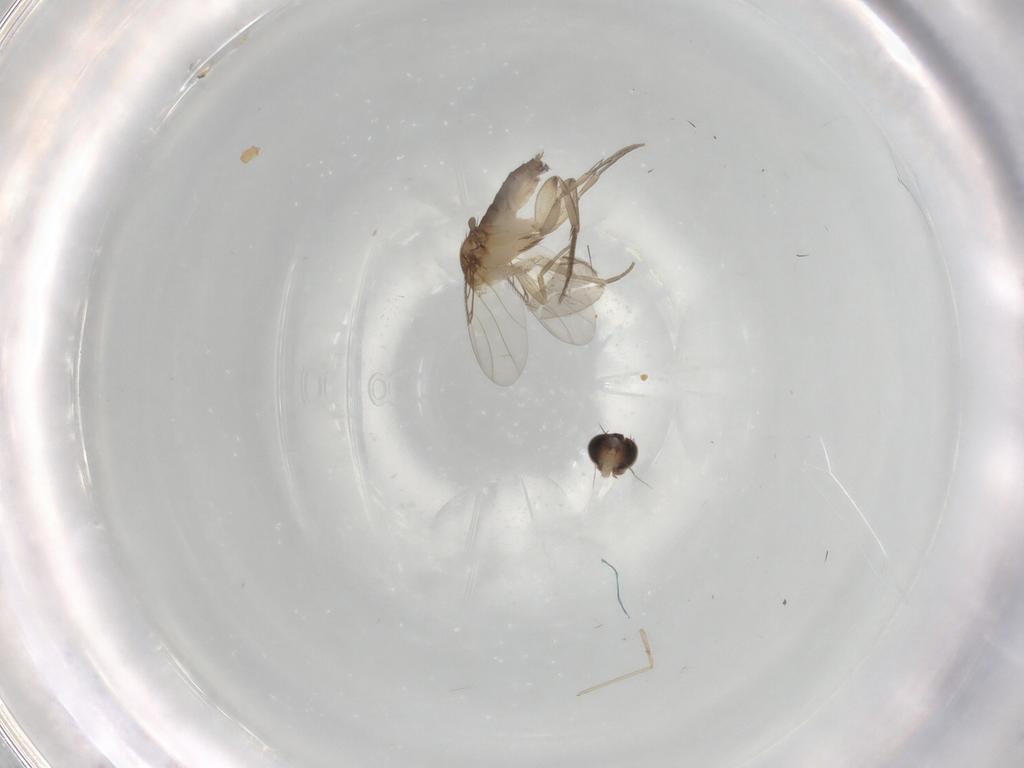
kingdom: Animalia
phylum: Arthropoda
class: Insecta
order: Diptera
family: Phoridae
